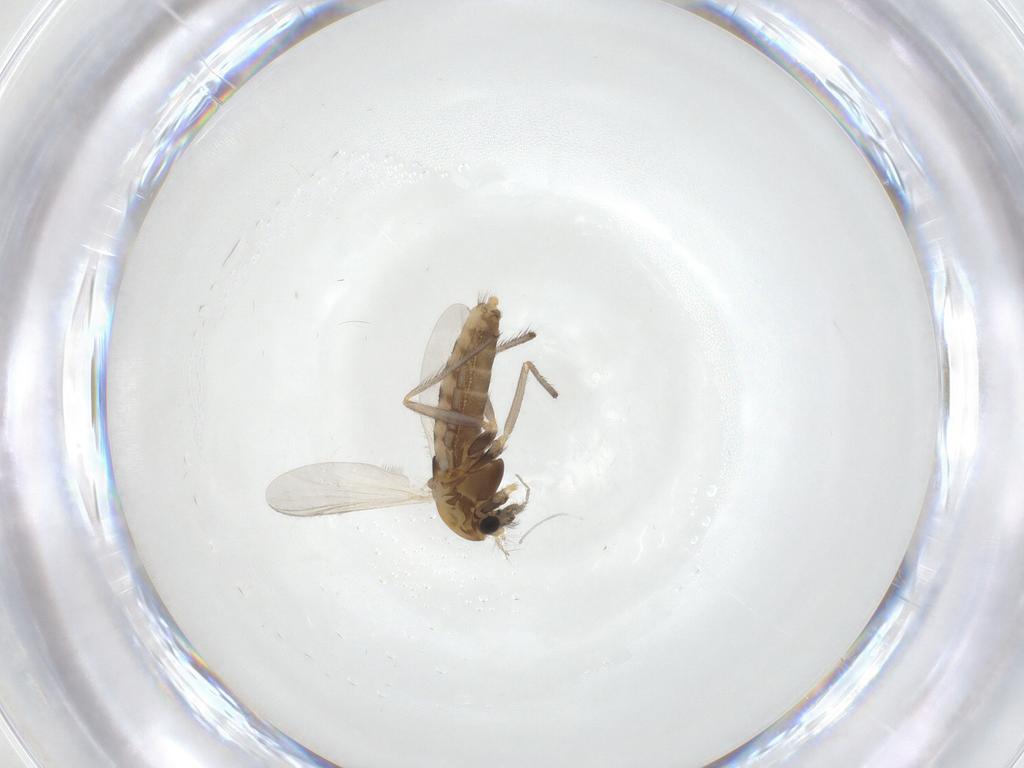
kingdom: Animalia
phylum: Arthropoda
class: Insecta
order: Diptera
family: Chironomidae
